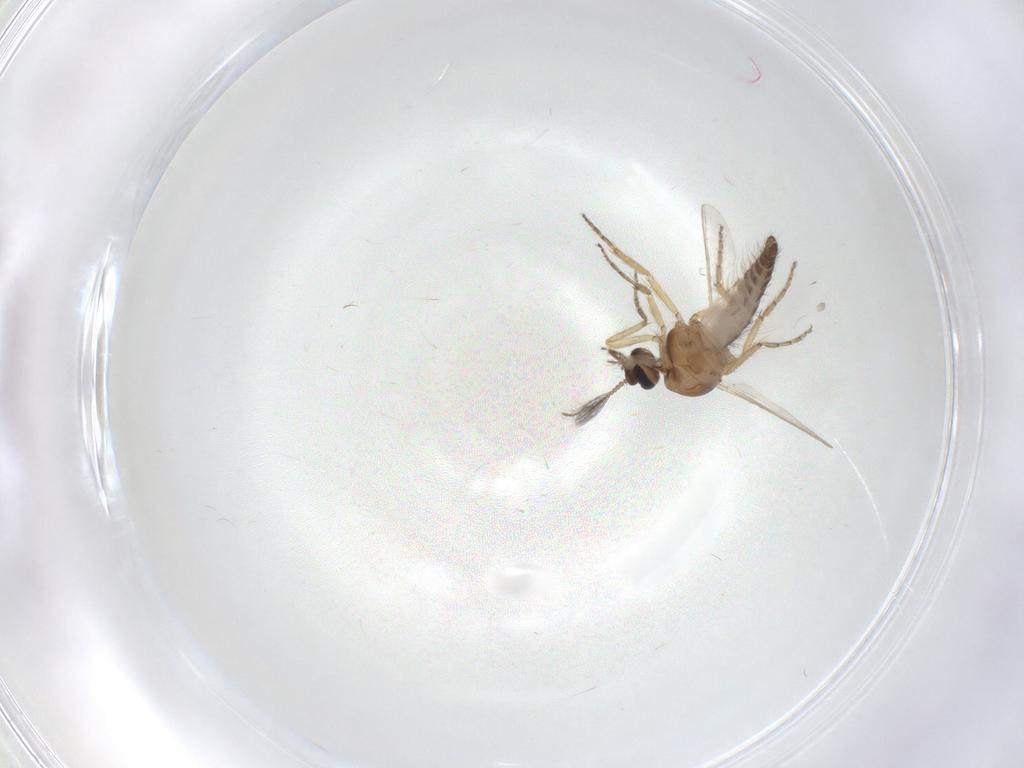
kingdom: Animalia
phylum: Arthropoda
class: Insecta
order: Diptera
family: Ceratopogonidae
